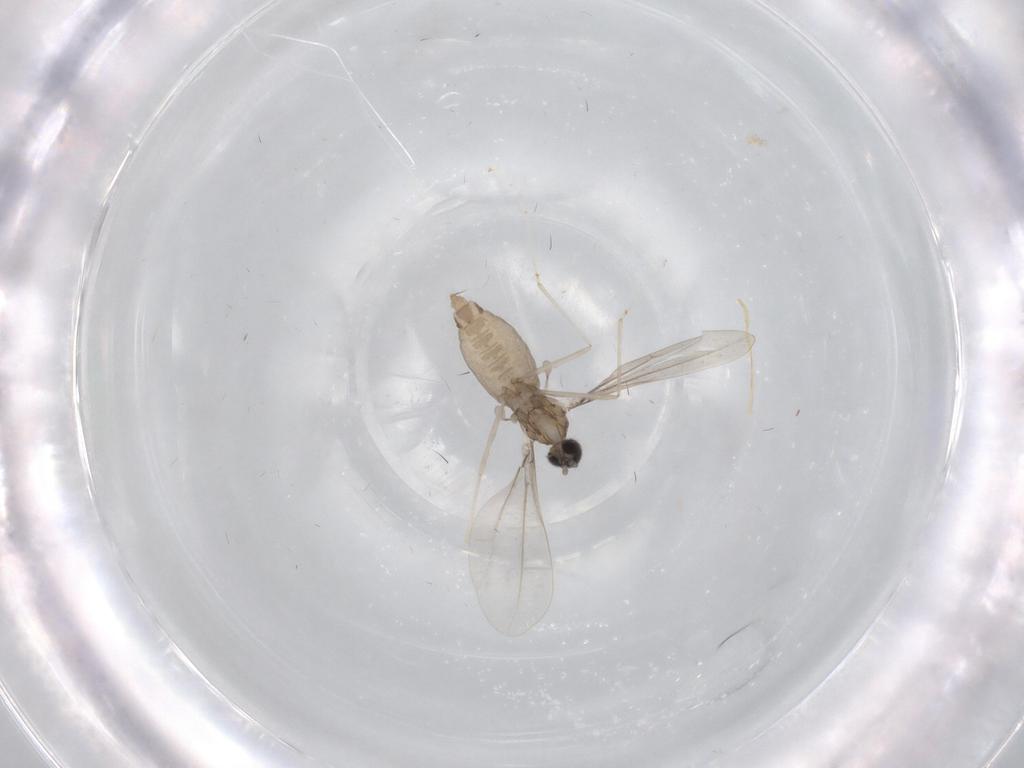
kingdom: Animalia
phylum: Arthropoda
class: Insecta
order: Diptera
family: Cecidomyiidae
